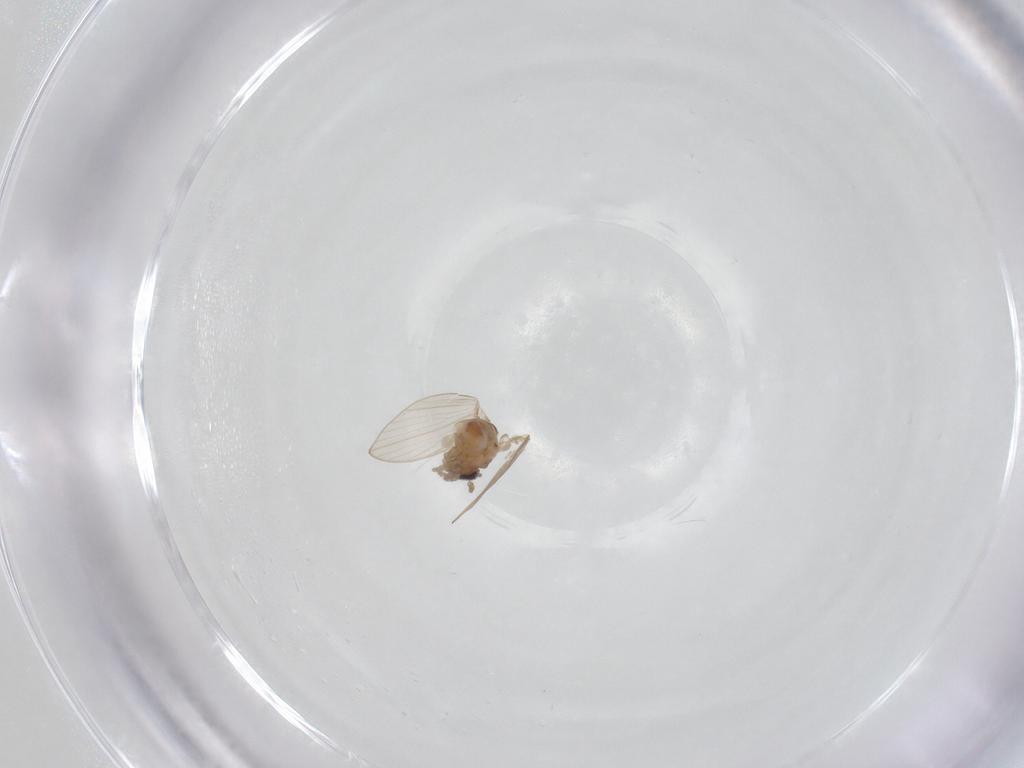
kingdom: Animalia
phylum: Arthropoda
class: Insecta
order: Diptera
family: Psychodidae
